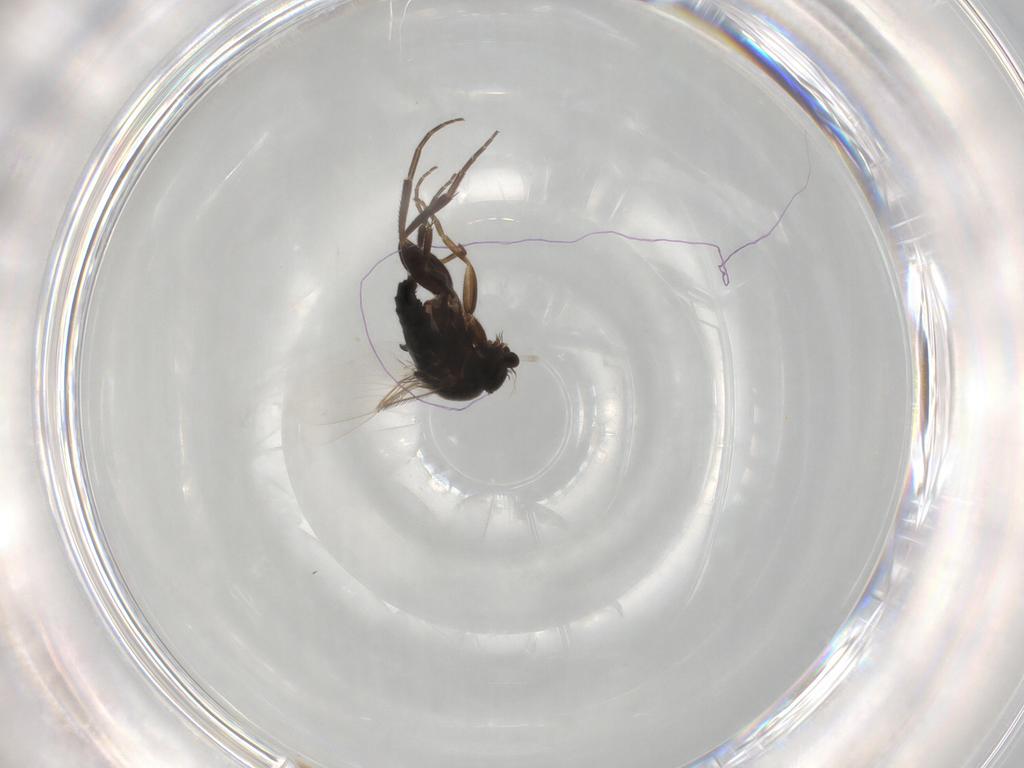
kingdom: Animalia
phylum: Arthropoda
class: Insecta
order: Diptera
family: Phoridae
